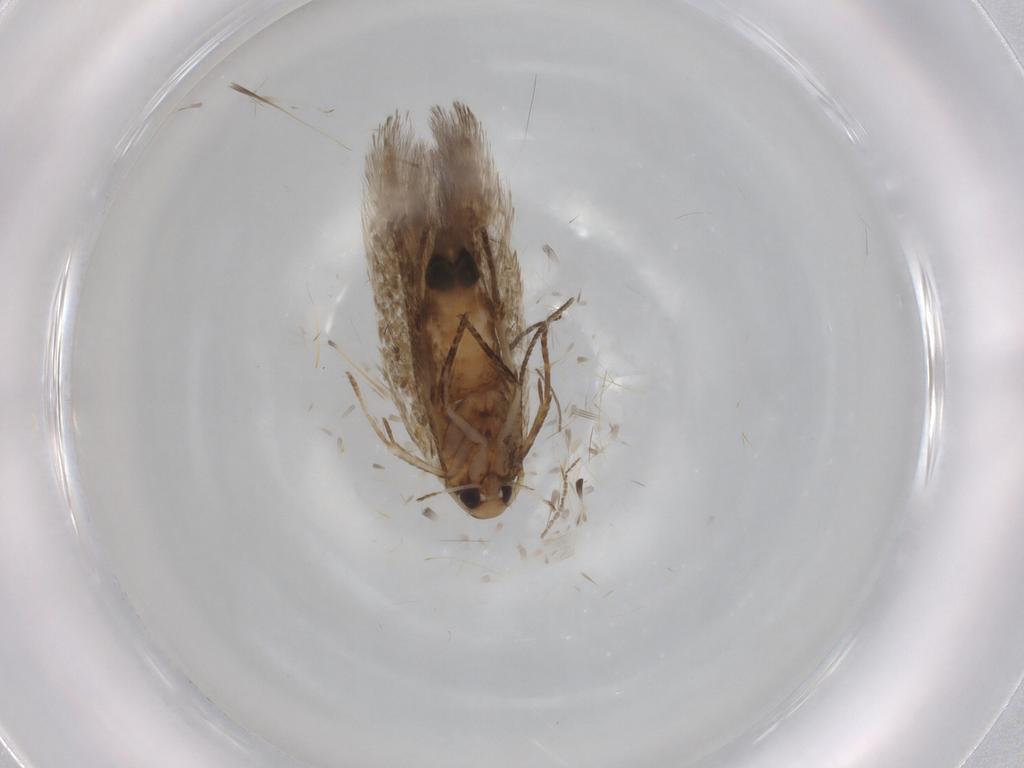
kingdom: Animalia
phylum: Arthropoda
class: Insecta
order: Lepidoptera
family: Cosmopterigidae
